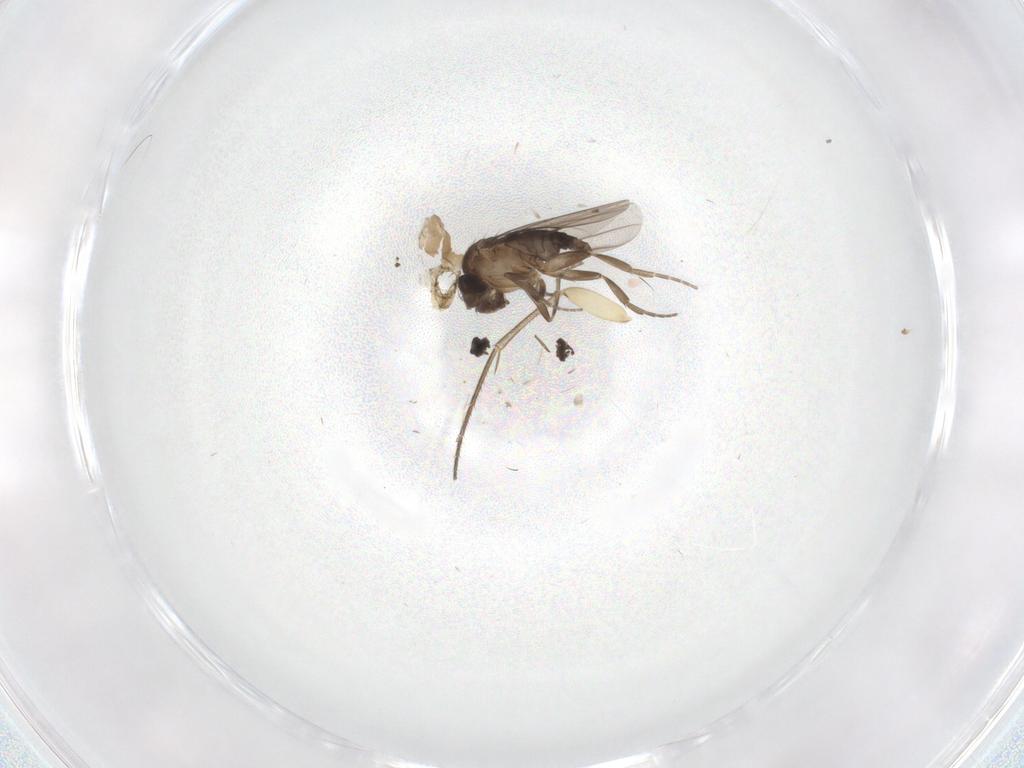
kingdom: Animalia
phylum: Arthropoda
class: Insecta
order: Diptera
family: Mycetophilidae
